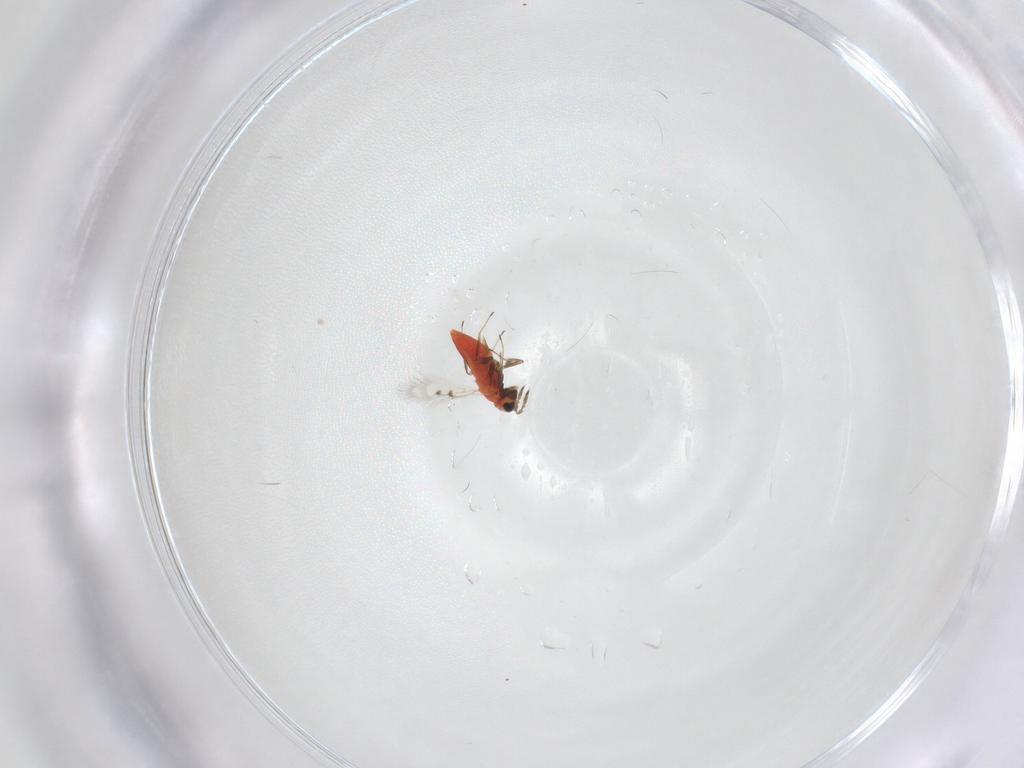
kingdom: Animalia
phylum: Arthropoda
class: Insecta
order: Hymenoptera
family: Trichogrammatidae
